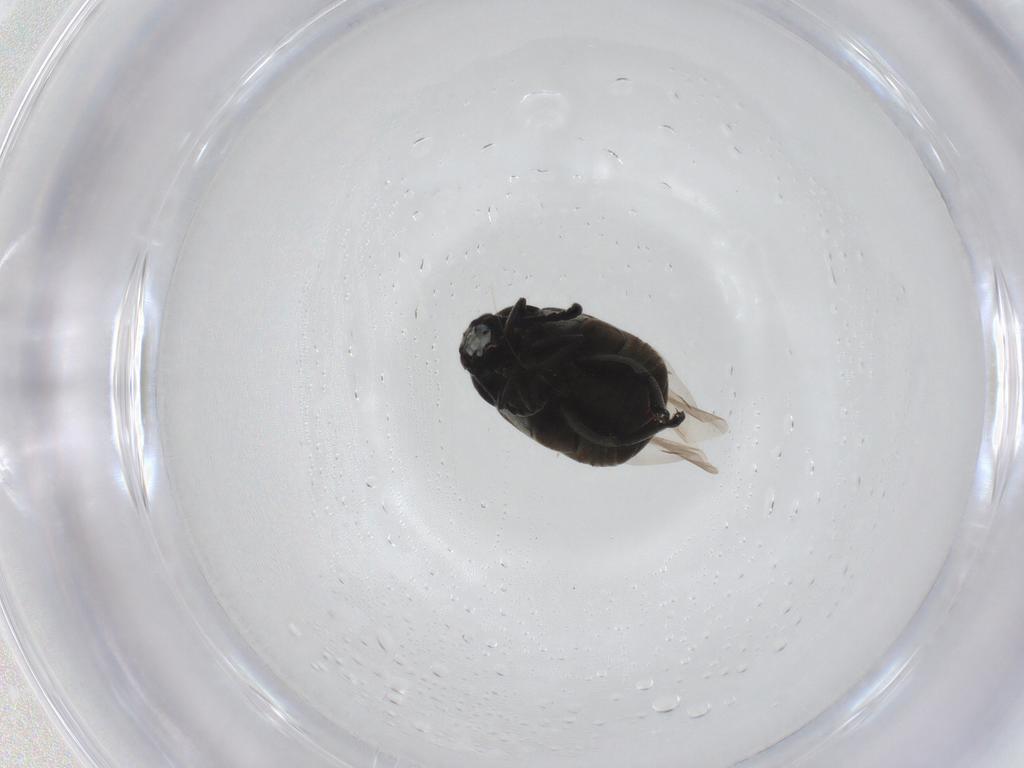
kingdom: Animalia
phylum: Arthropoda
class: Insecta
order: Coleoptera
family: Chrysomelidae
